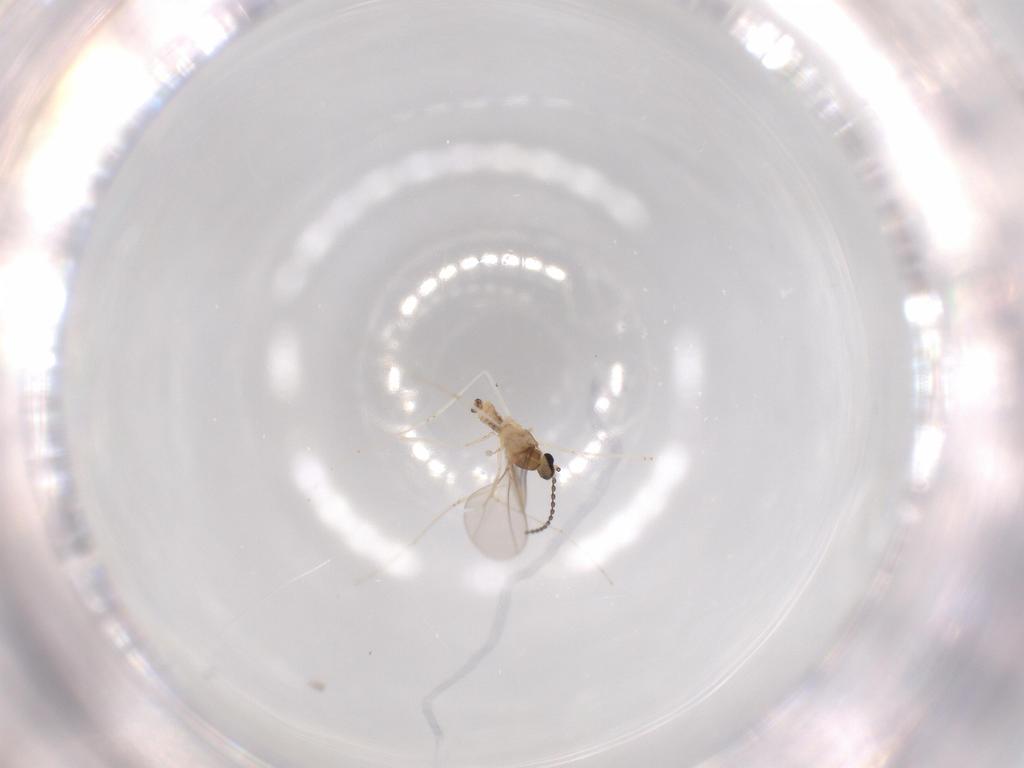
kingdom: Animalia
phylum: Arthropoda
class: Insecta
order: Diptera
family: Cecidomyiidae
